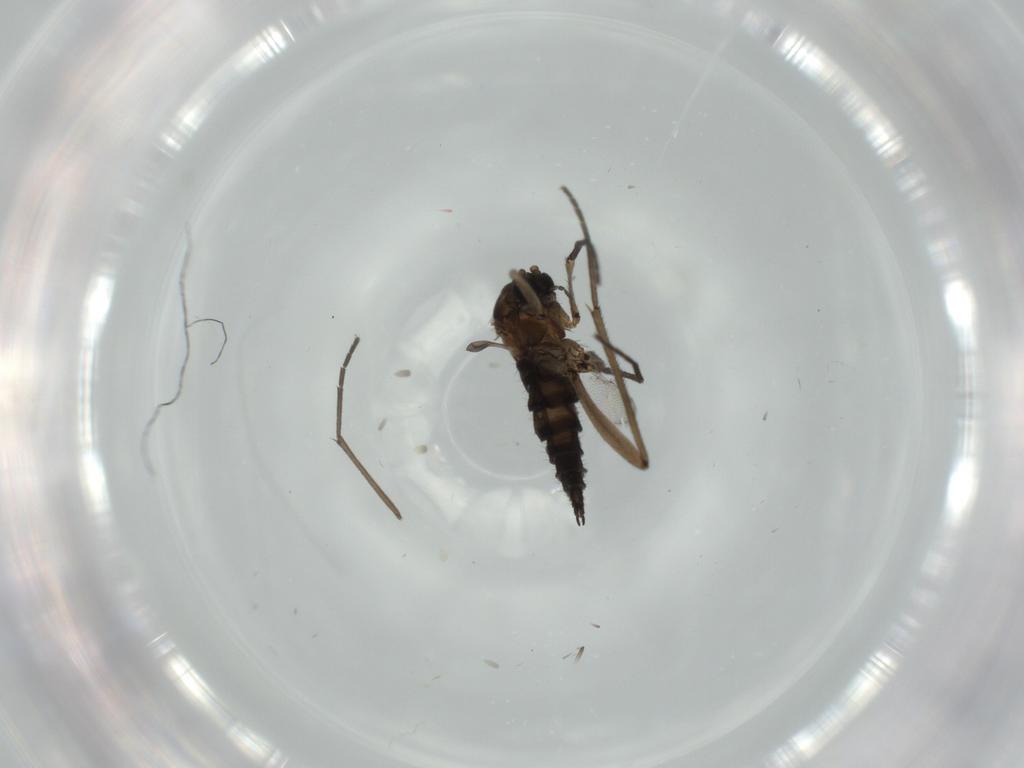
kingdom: Animalia
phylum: Arthropoda
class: Insecta
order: Diptera
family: Sciaridae
